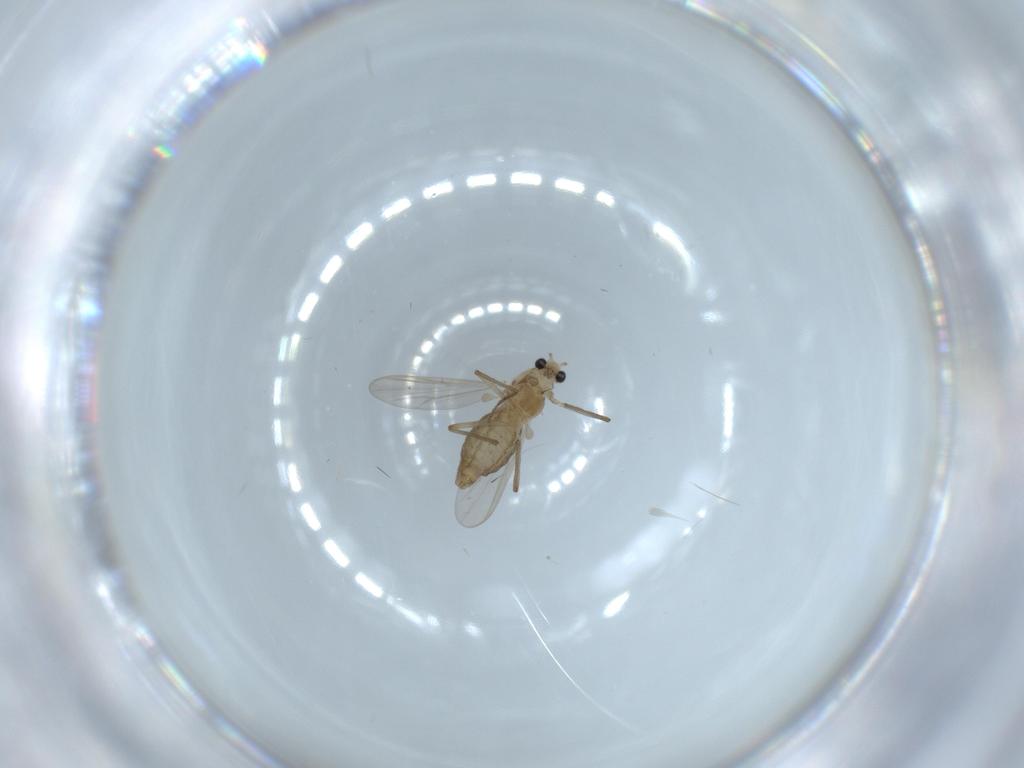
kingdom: Animalia
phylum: Arthropoda
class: Insecta
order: Diptera
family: Chironomidae
